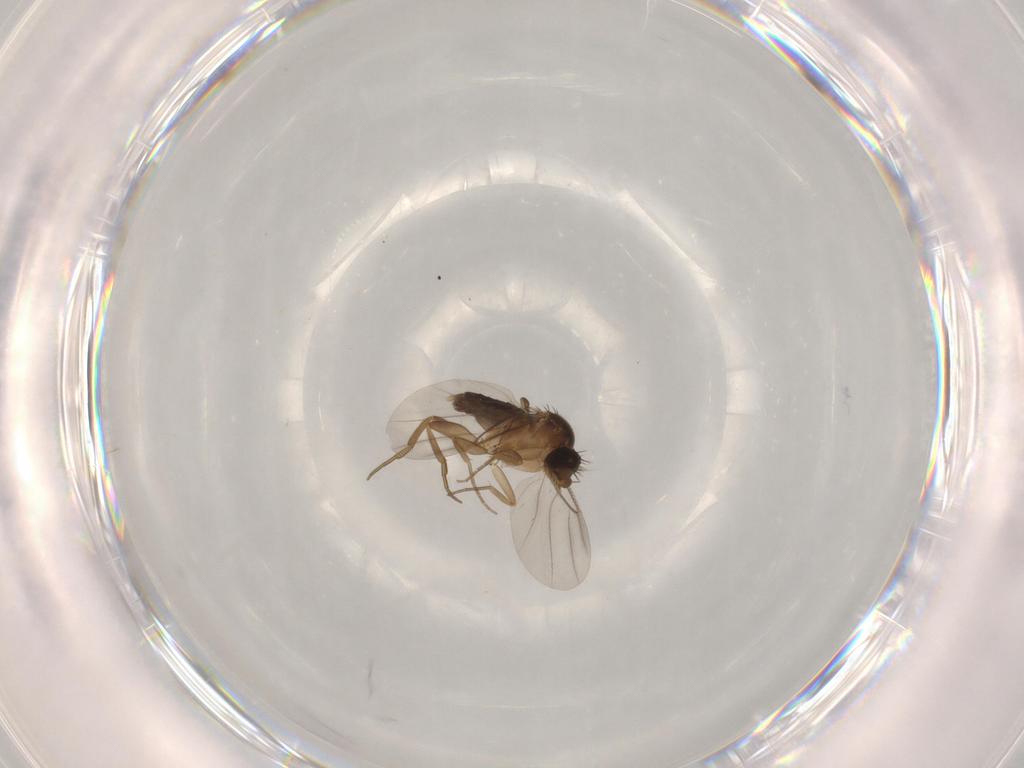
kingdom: Animalia
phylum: Arthropoda
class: Insecta
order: Diptera
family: Phoridae
